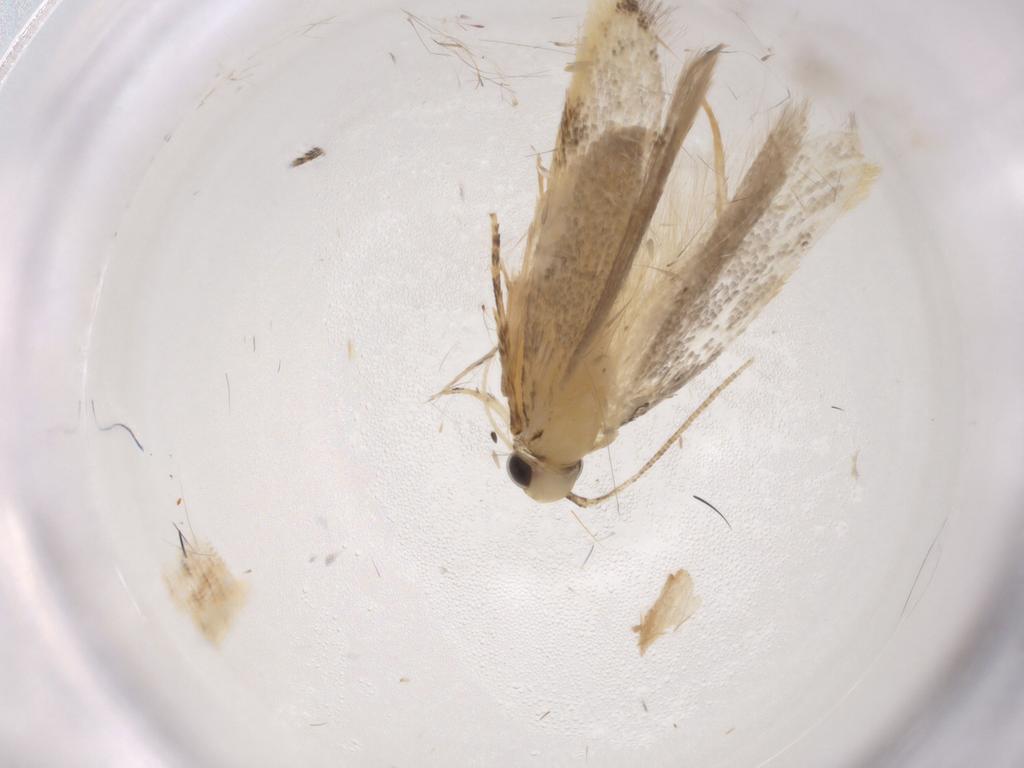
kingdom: Animalia
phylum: Arthropoda
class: Insecta
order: Lepidoptera
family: Autostichidae
